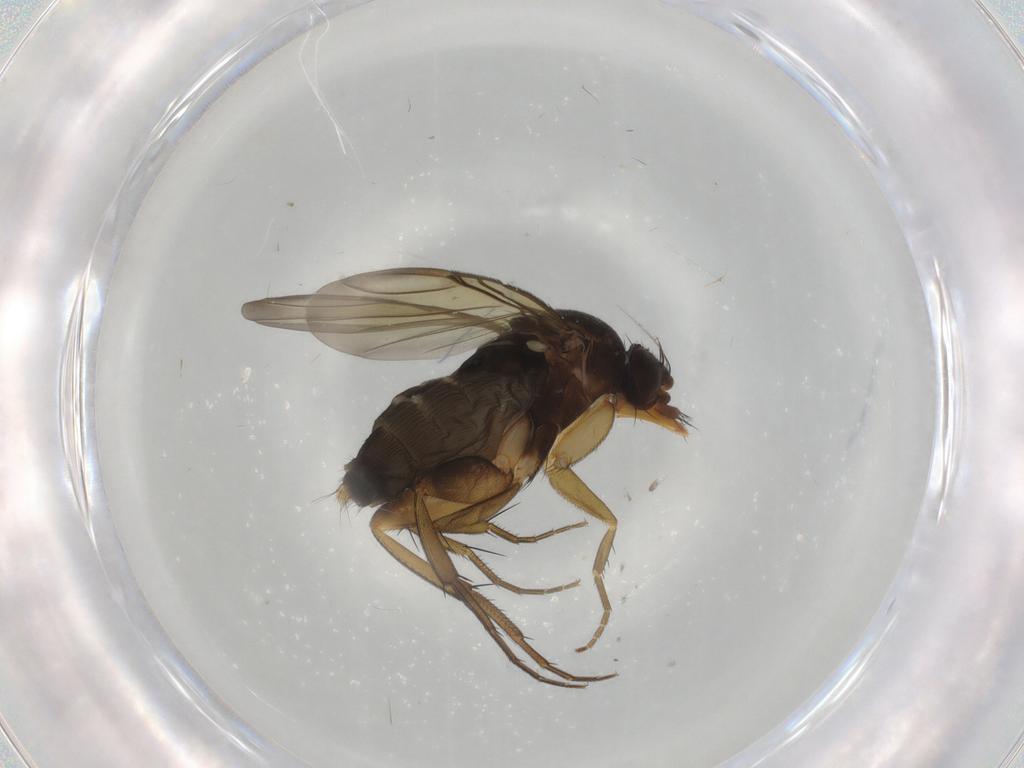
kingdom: Animalia
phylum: Arthropoda
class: Insecta
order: Diptera
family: Phoridae
